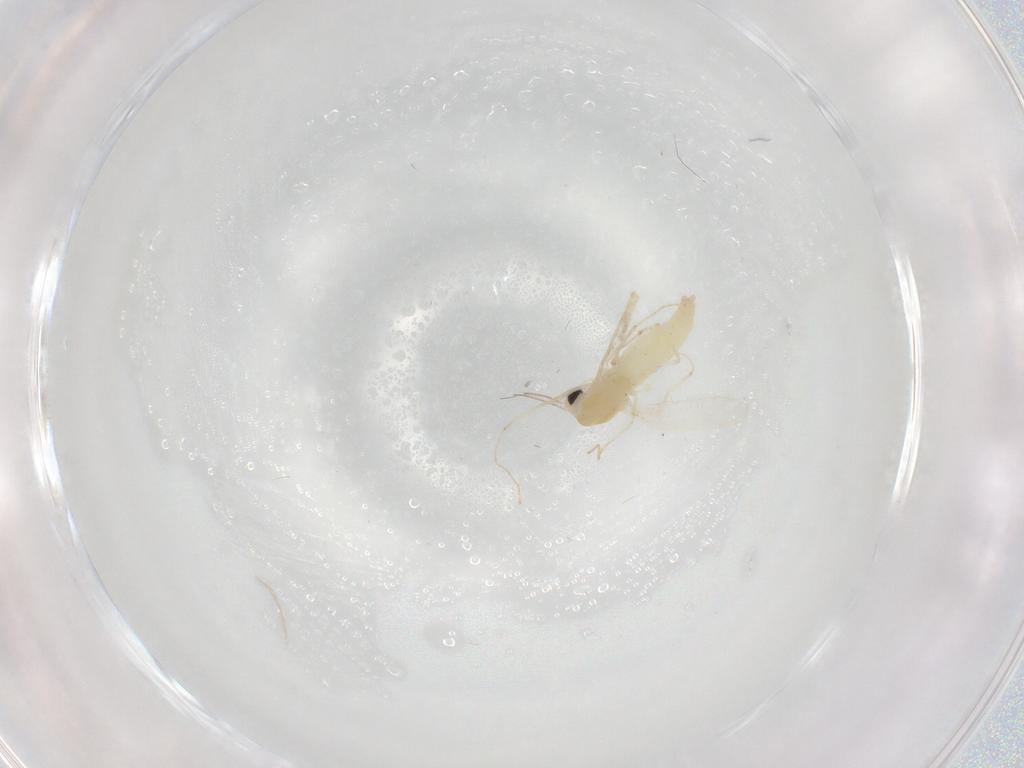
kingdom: Animalia
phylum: Arthropoda
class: Insecta
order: Diptera
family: Chironomidae
